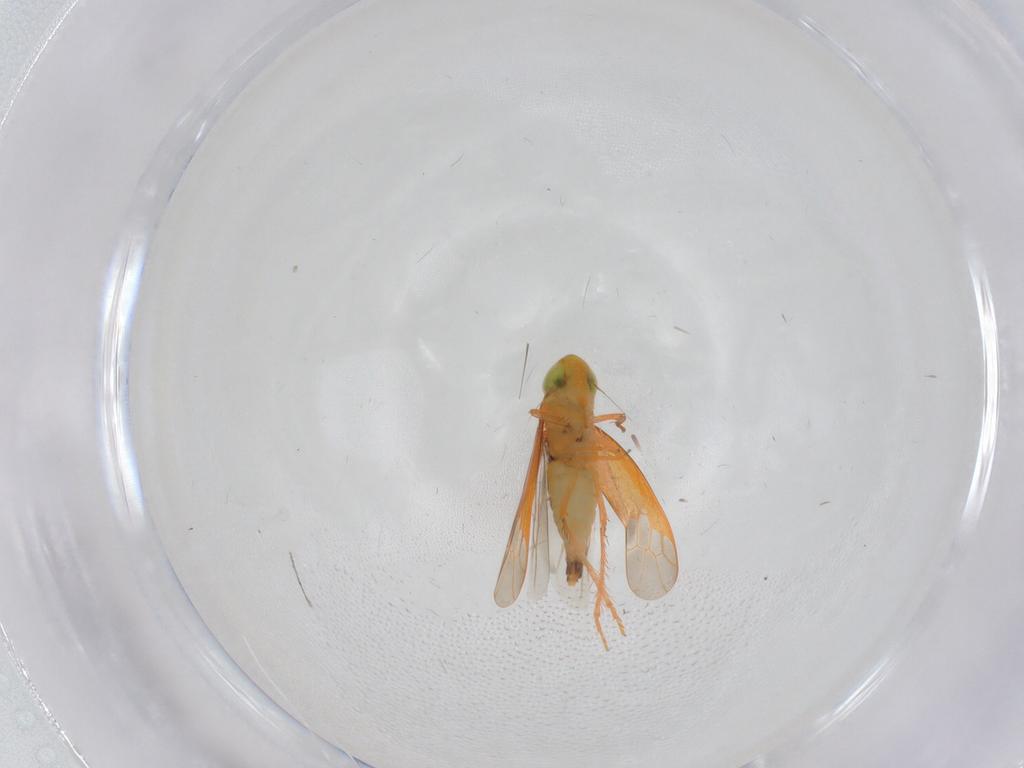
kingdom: Animalia
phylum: Arthropoda
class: Insecta
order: Hemiptera
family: Cicadellidae
